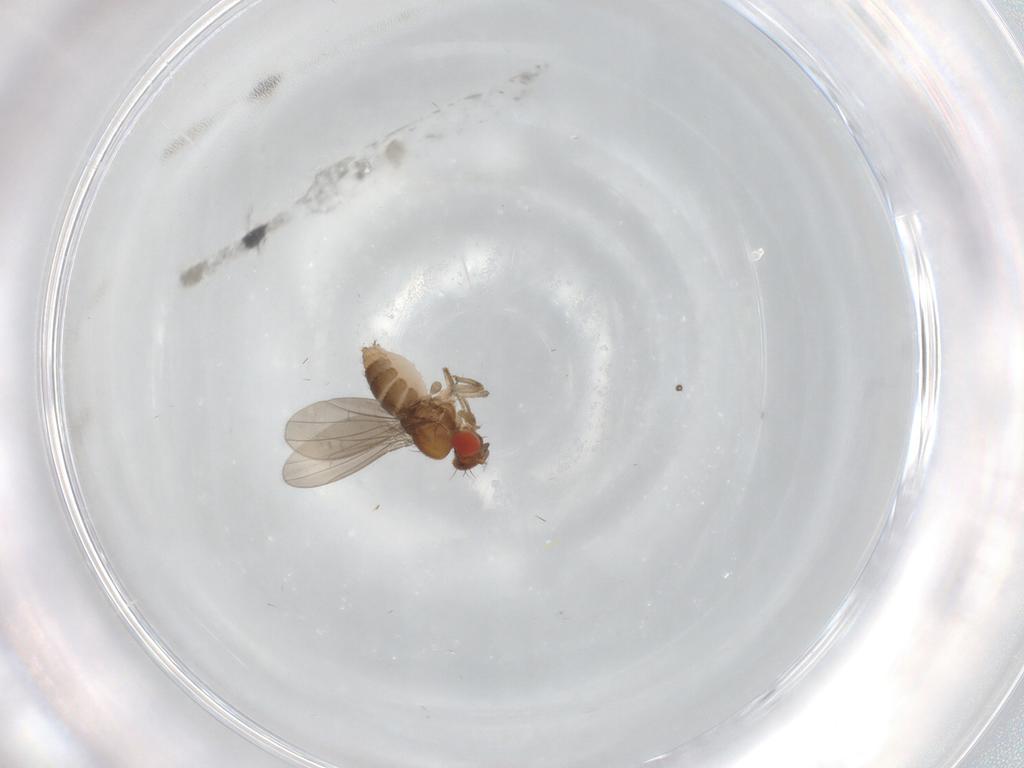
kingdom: Animalia
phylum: Arthropoda
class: Insecta
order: Diptera
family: Drosophilidae
